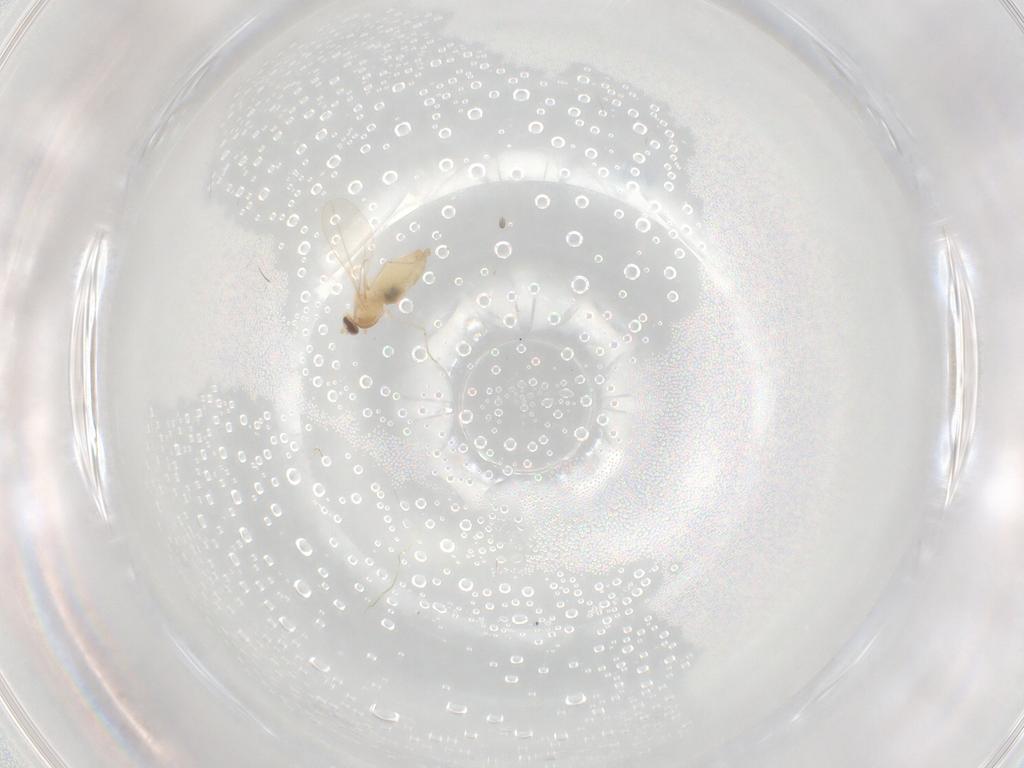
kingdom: Animalia
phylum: Arthropoda
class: Insecta
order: Diptera
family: Cecidomyiidae
